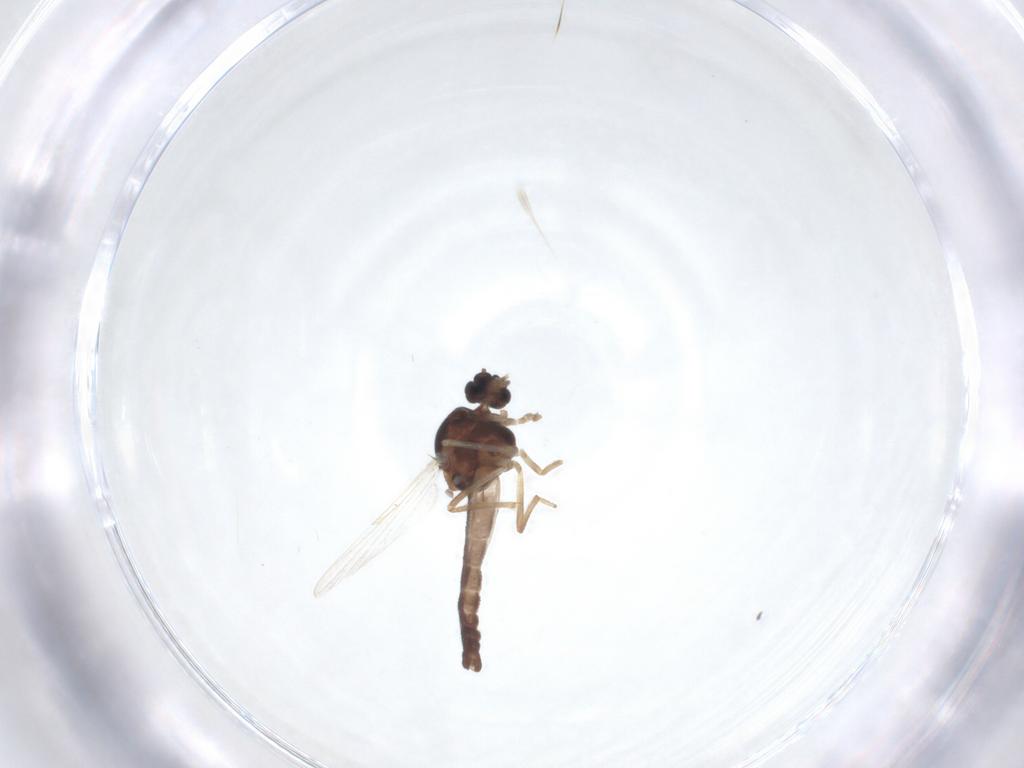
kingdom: Animalia
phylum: Arthropoda
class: Insecta
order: Diptera
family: Ceratopogonidae
